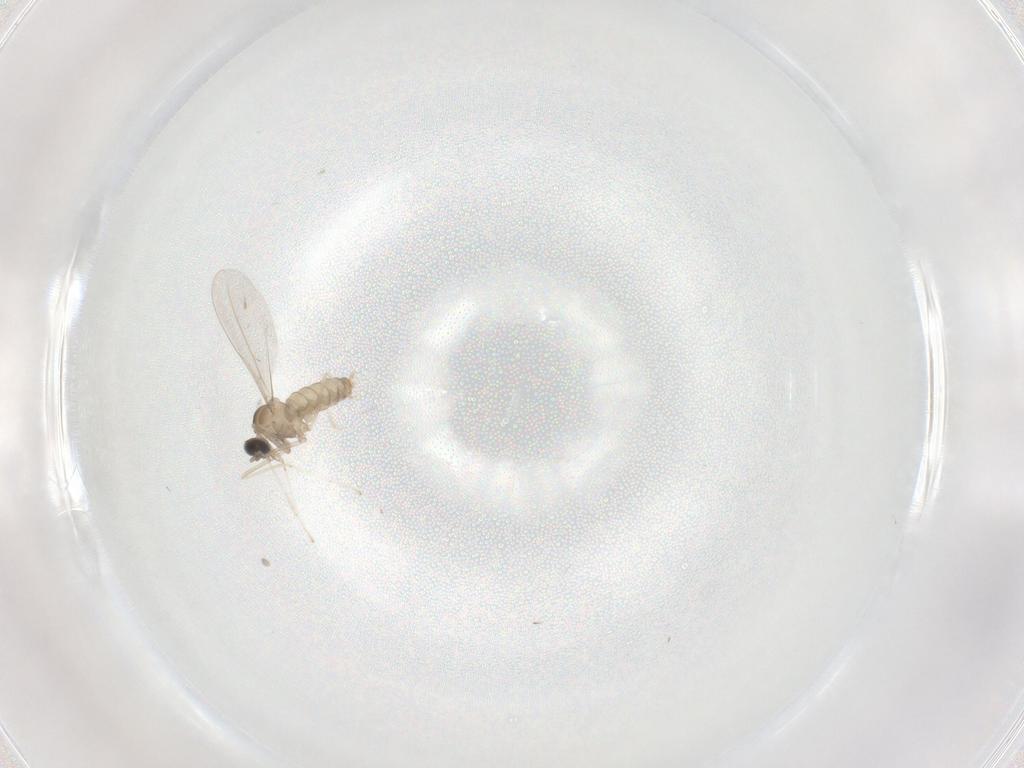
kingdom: Animalia
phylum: Arthropoda
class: Insecta
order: Diptera
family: Cecidomyiidae
